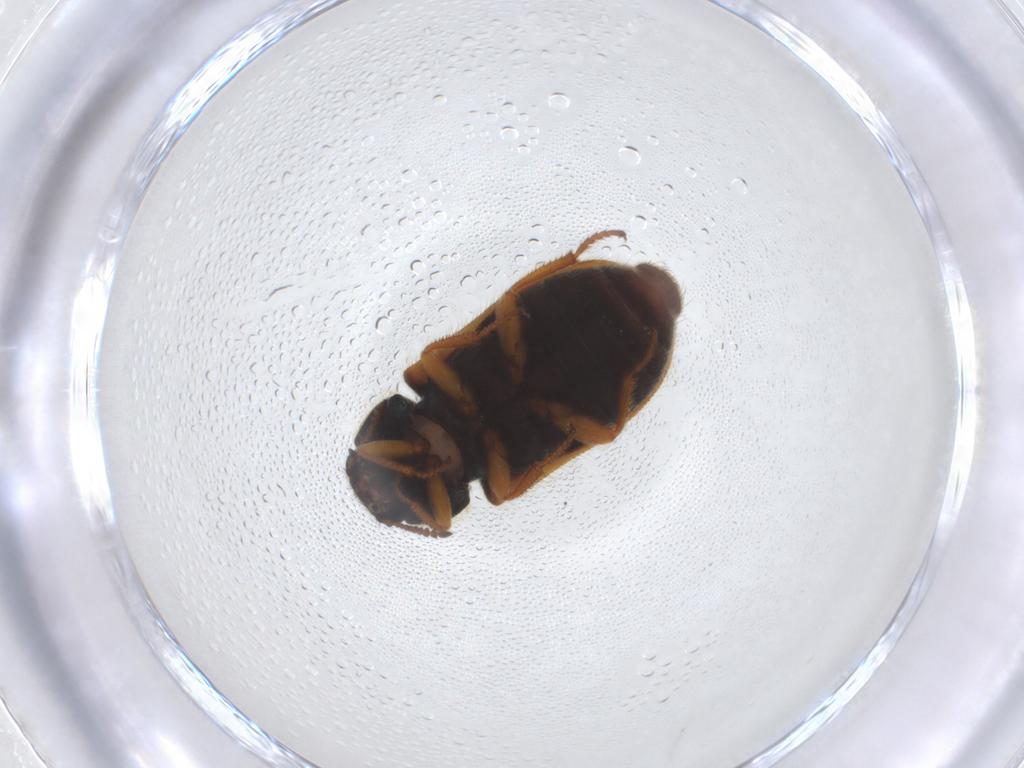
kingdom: Animalia
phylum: Arthropoda
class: Insecta
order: Coleoptera
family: Melyridae
